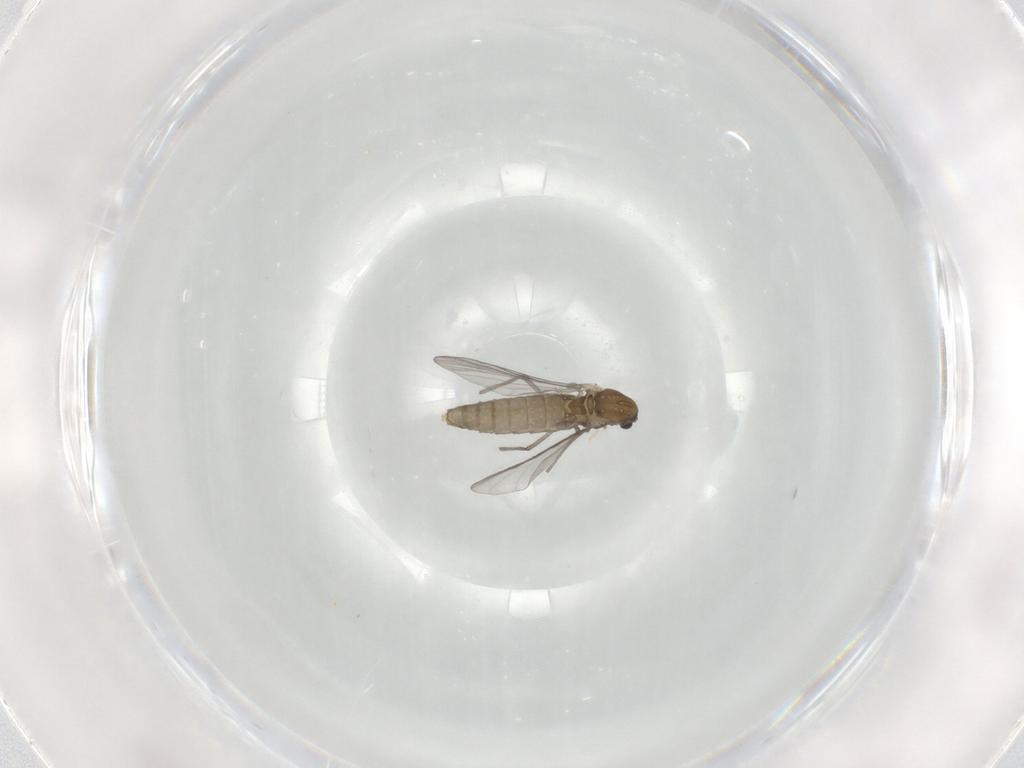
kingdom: Animalia
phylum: Arthropoda
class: Insecta
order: Diptera
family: Chironomidae
